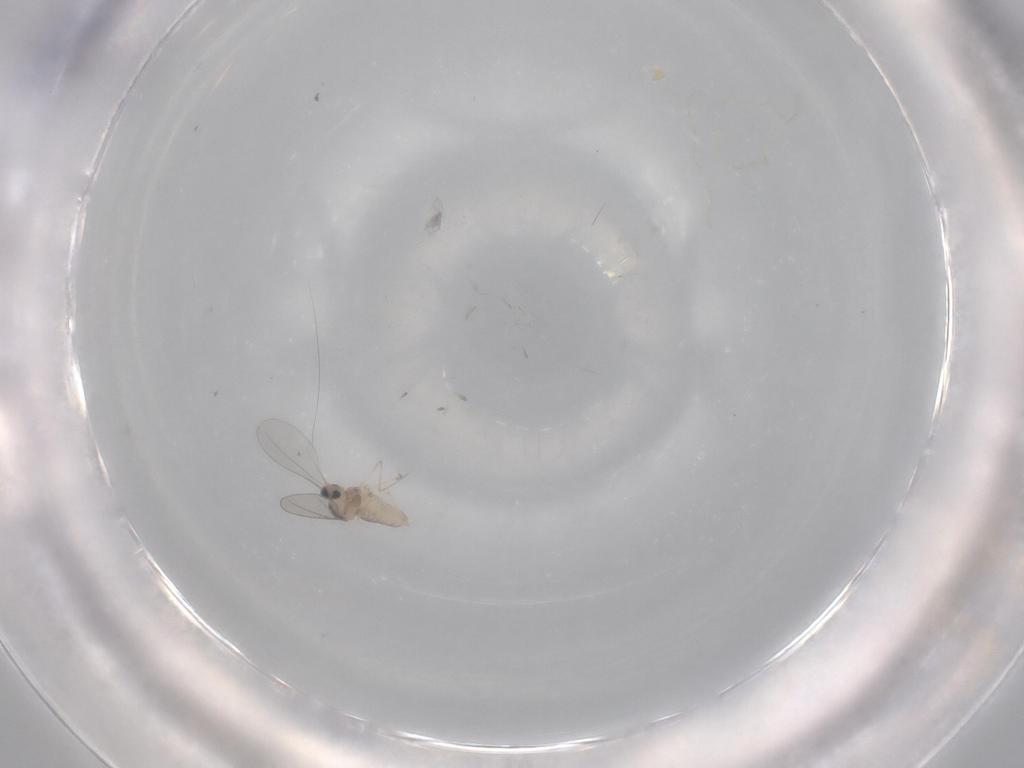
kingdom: Animalia
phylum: Arthropoda
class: Insecta
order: Diptera
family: Cecidomyiidae
